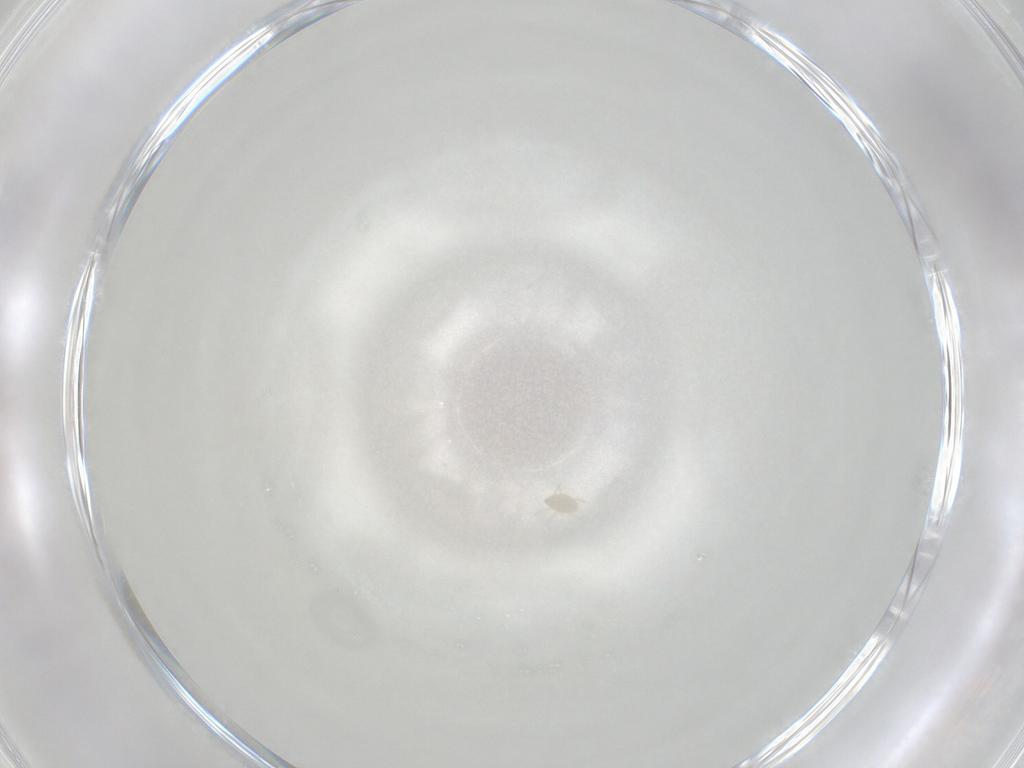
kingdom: Animalia
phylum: Arthropoda
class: Arachnida
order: Trombidiformes
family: Microtrombidiidae
